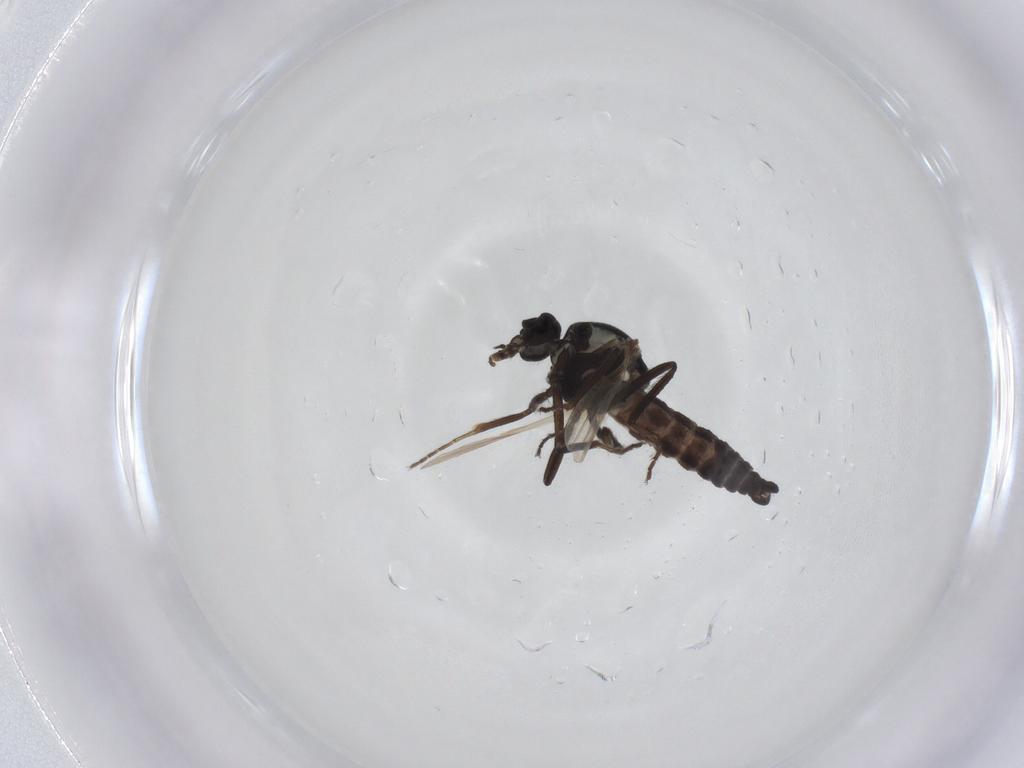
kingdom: Animalia
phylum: Arthropoda
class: Insecta
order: Diptera
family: Ceratopogonidae
